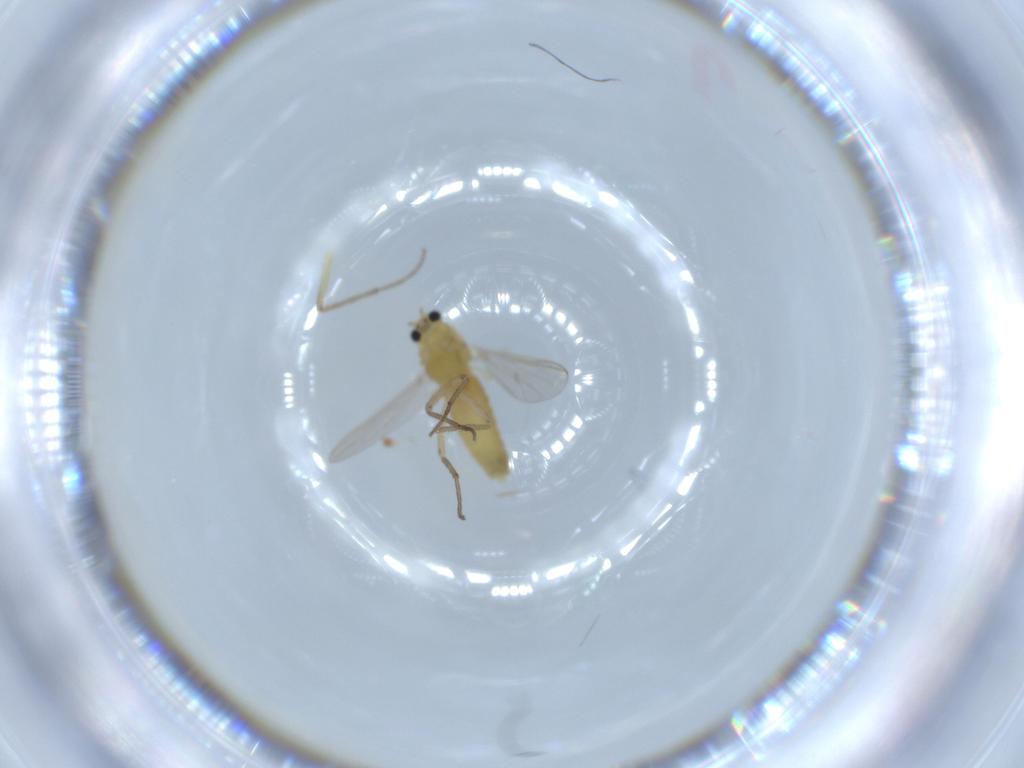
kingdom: Animalia
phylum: Arthropoda
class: Insecta
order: Diptera
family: Chironomidae
